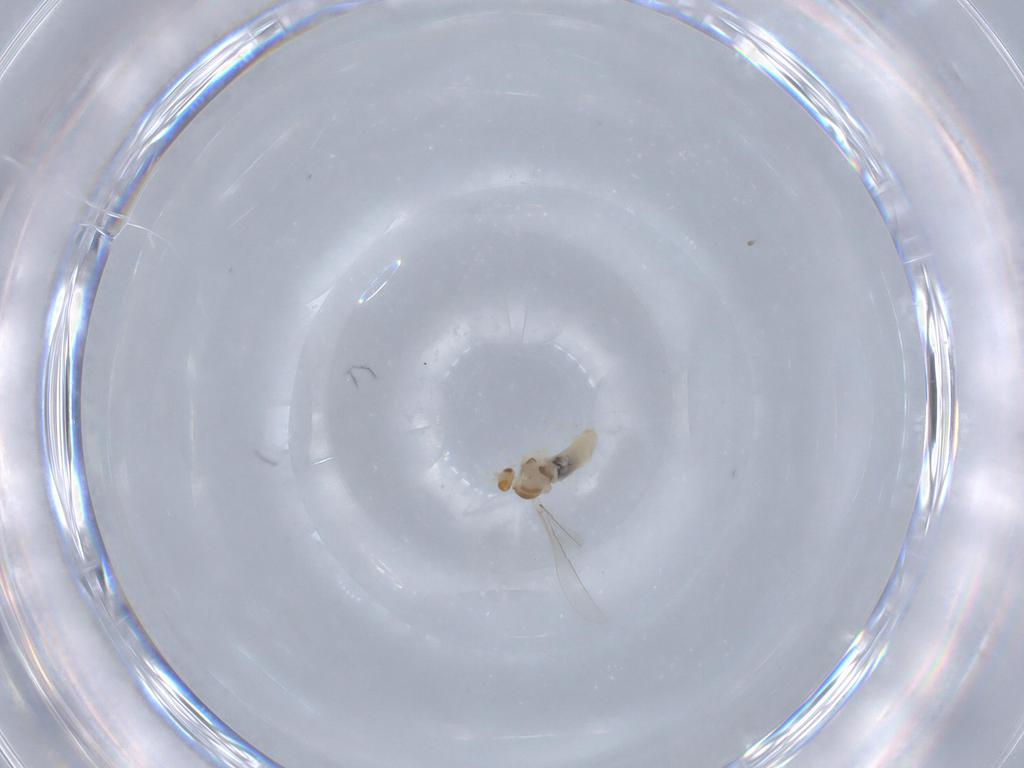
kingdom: Animalia
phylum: Arthropoda
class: Insecta
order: Diptera
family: Cecidomyiidae
